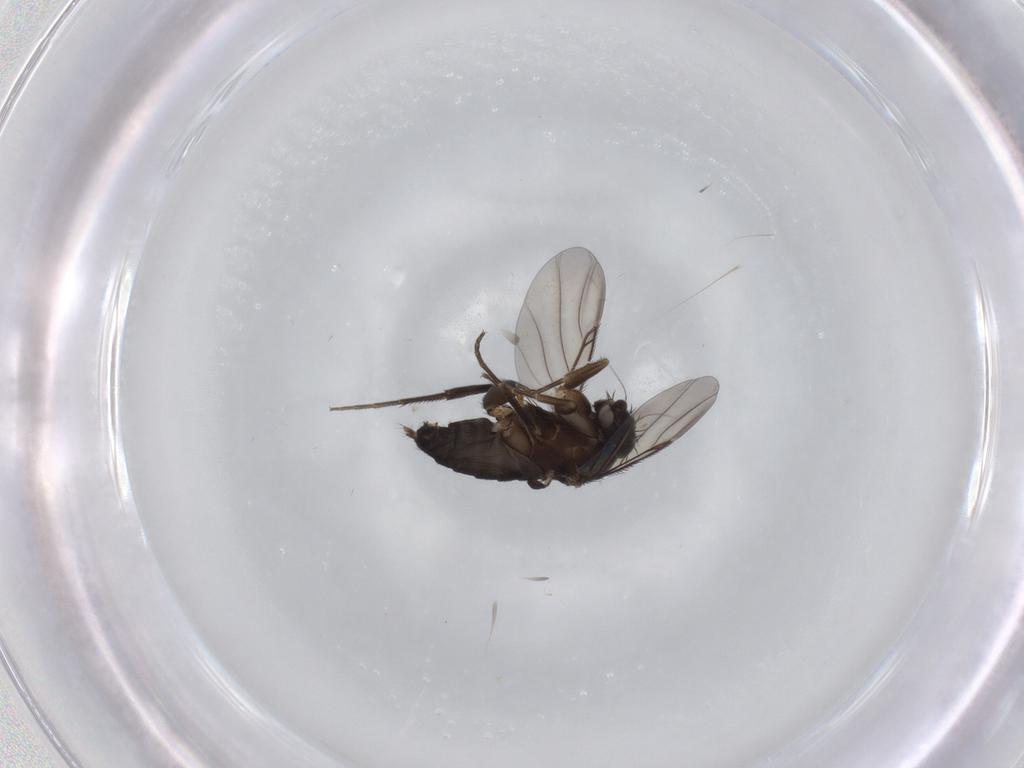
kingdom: Animalia
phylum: Arthropoda
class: Insecta
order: Diptera
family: Phoridae
